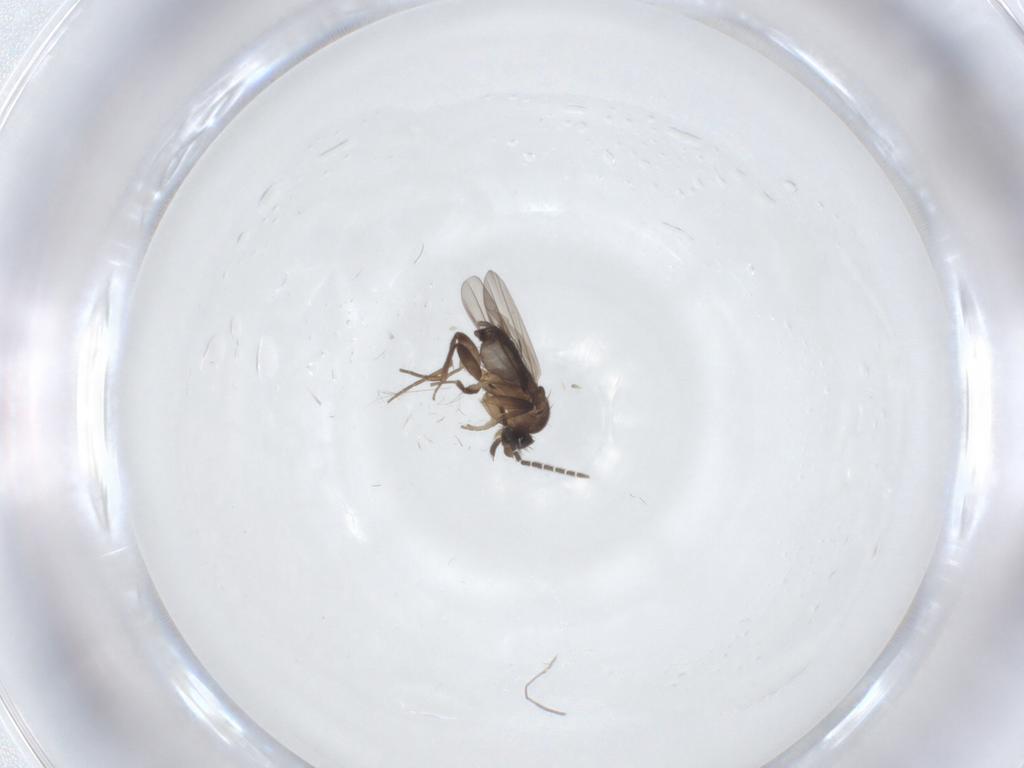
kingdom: Animalia
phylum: Arthropoda
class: Insecta
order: Diptera
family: Sciaridae
